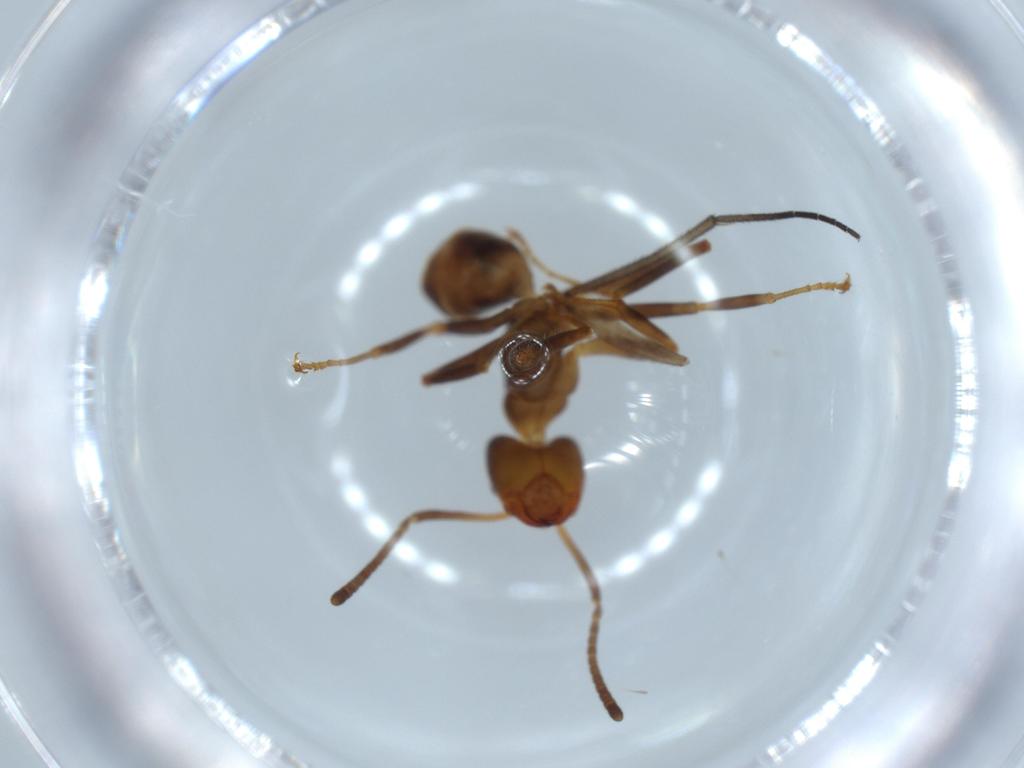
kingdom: Animalia
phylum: Arthropoda
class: Insecta
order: Hymenoptera
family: Formicidae
